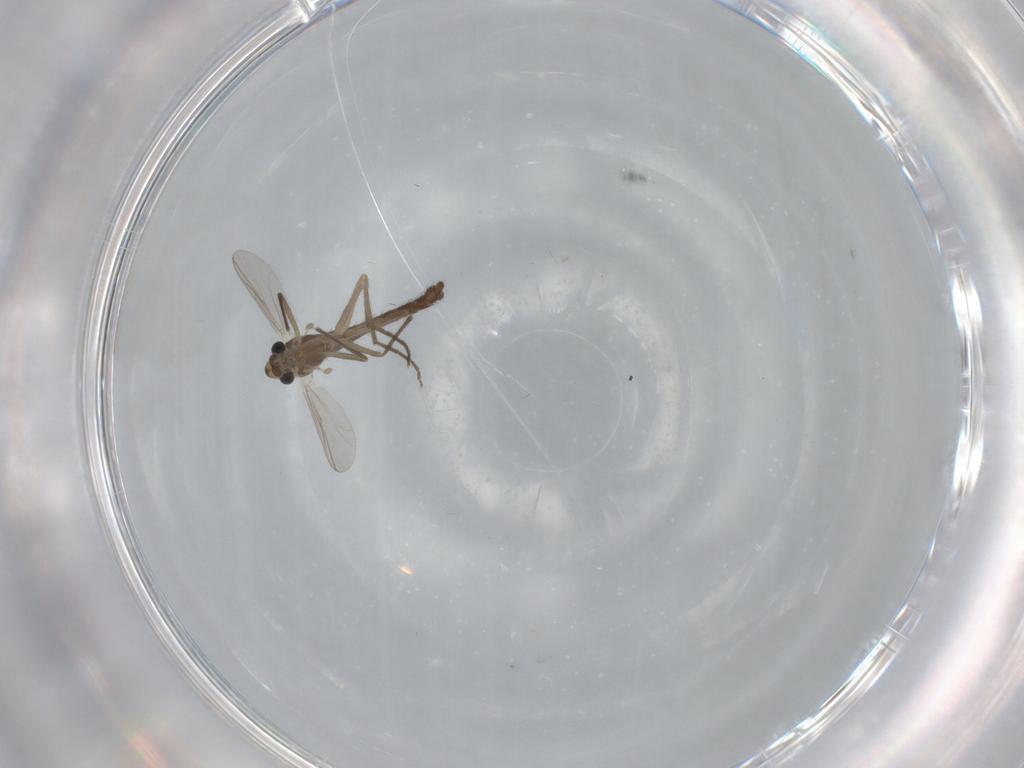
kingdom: Animalia
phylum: Arthropoda
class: Insecta
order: Diptera
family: Chironomidae
